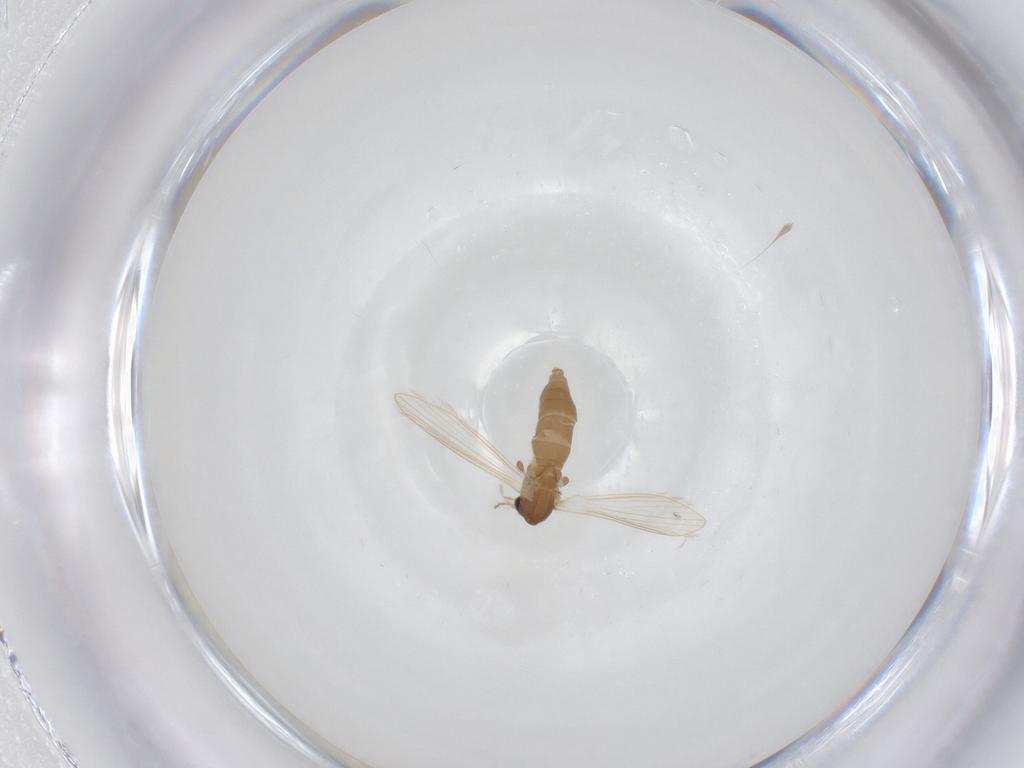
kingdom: Animalia
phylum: Arthropoda
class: Insecta
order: Diptera
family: Psychodidae
